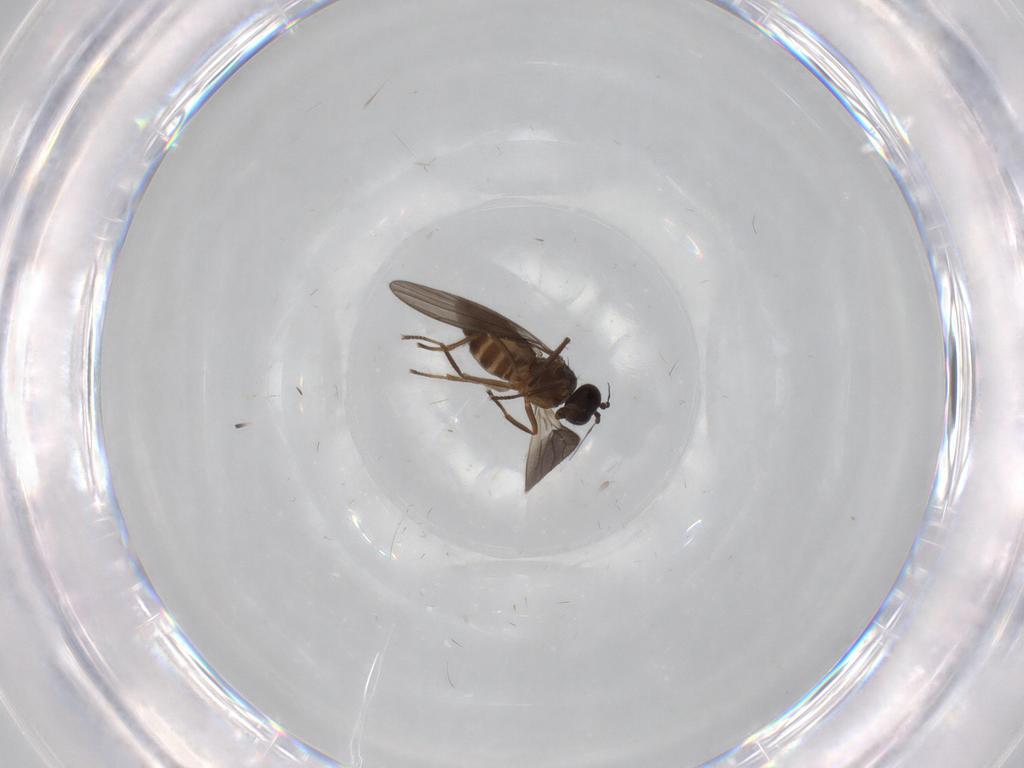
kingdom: Animalia
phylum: Arthropoda
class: Insecta
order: Diptera
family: Empididae
